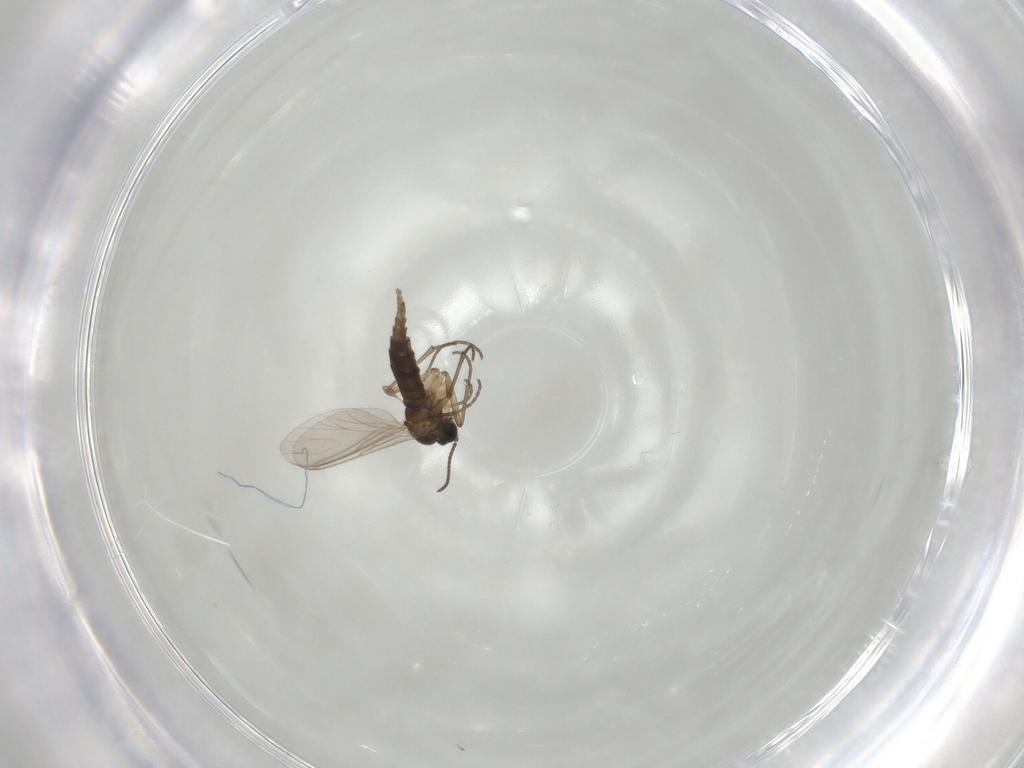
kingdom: Animalia
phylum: Arthropoda
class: Insecta
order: Diptera
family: Sciaridae
